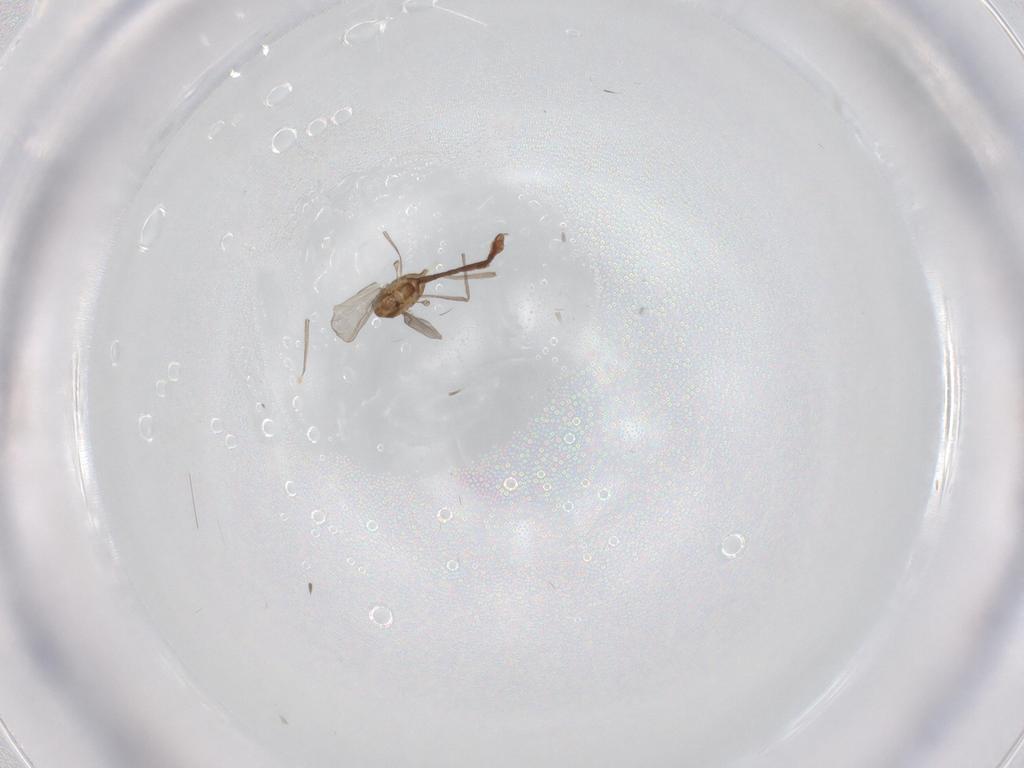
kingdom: Animalia
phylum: Arthropoda
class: Insecta
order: Diptera
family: Chironomidae
